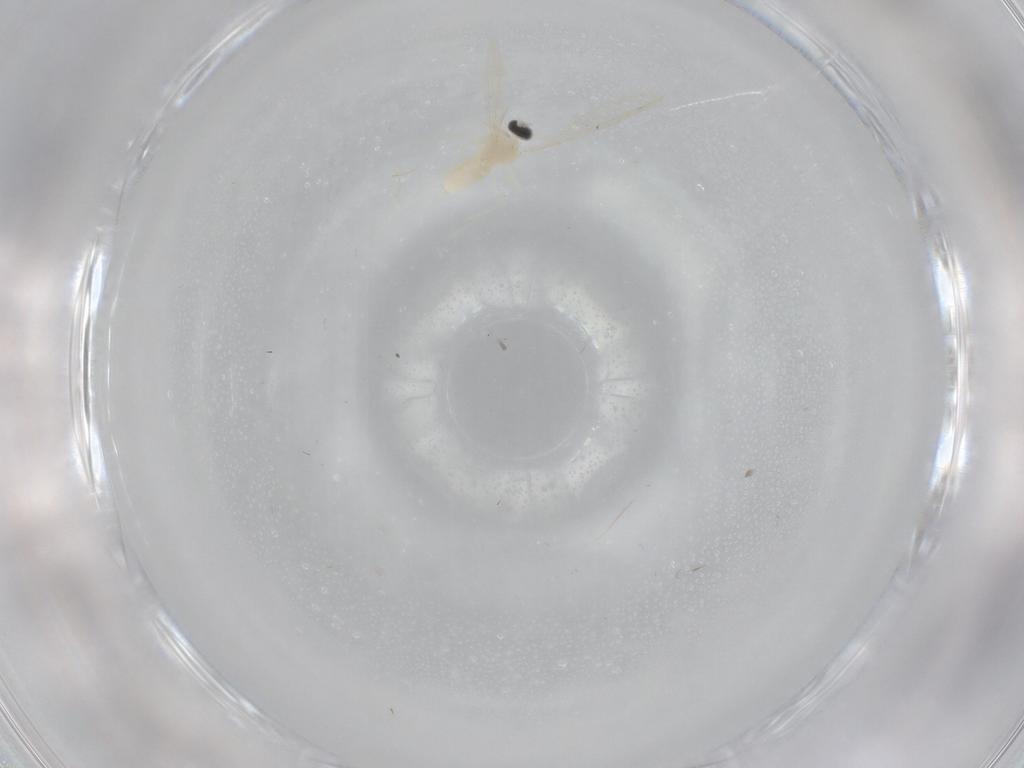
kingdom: Animalia
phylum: Arthropoda
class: Insecta
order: Diptera
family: Cecidomyiidae
